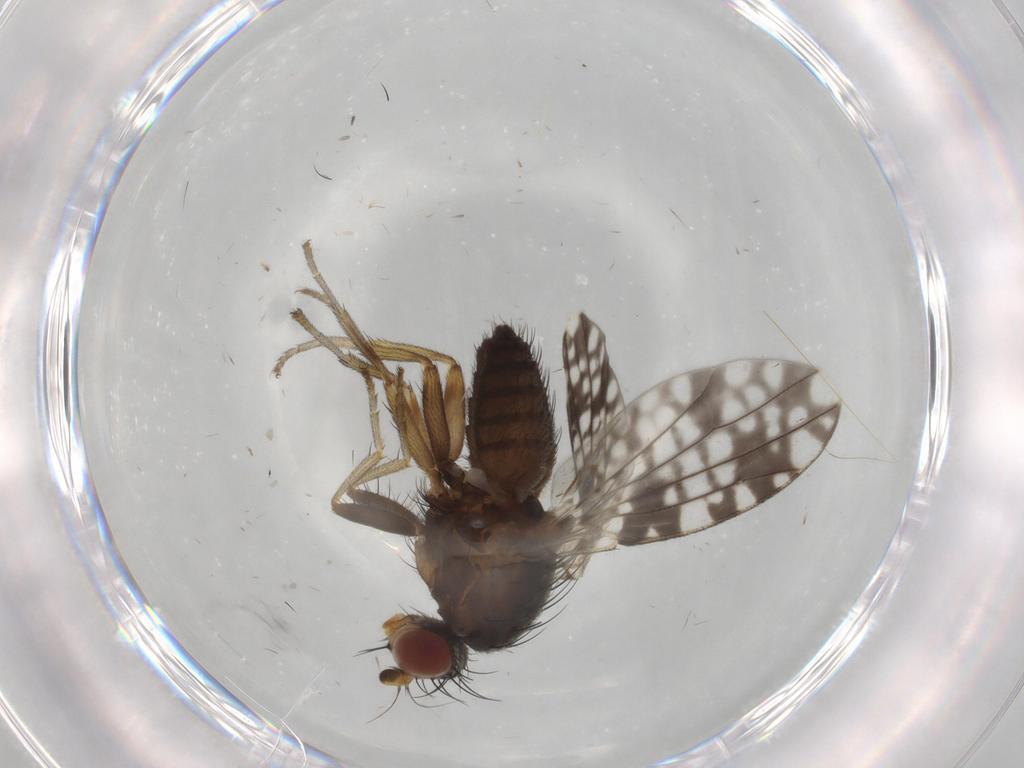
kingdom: Animalia
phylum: Arthropoda
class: Insecta
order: Diptera
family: Tephritidae
